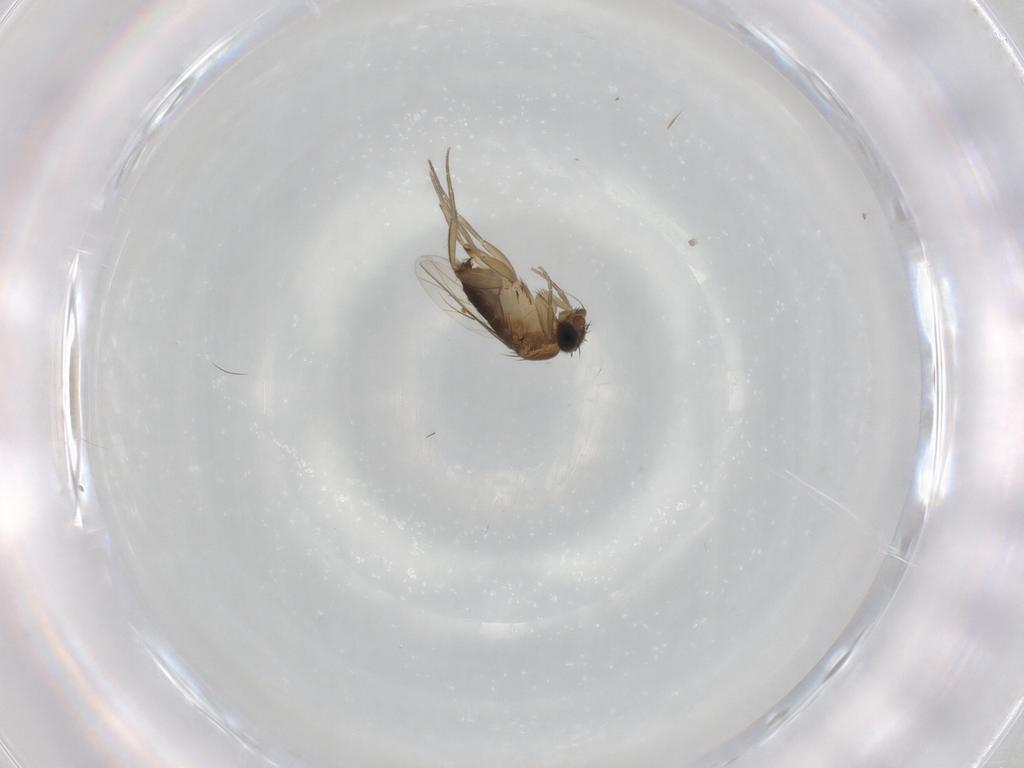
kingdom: Animalia
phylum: Arthropoda
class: Insecta
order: Diptera
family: Phoridae
